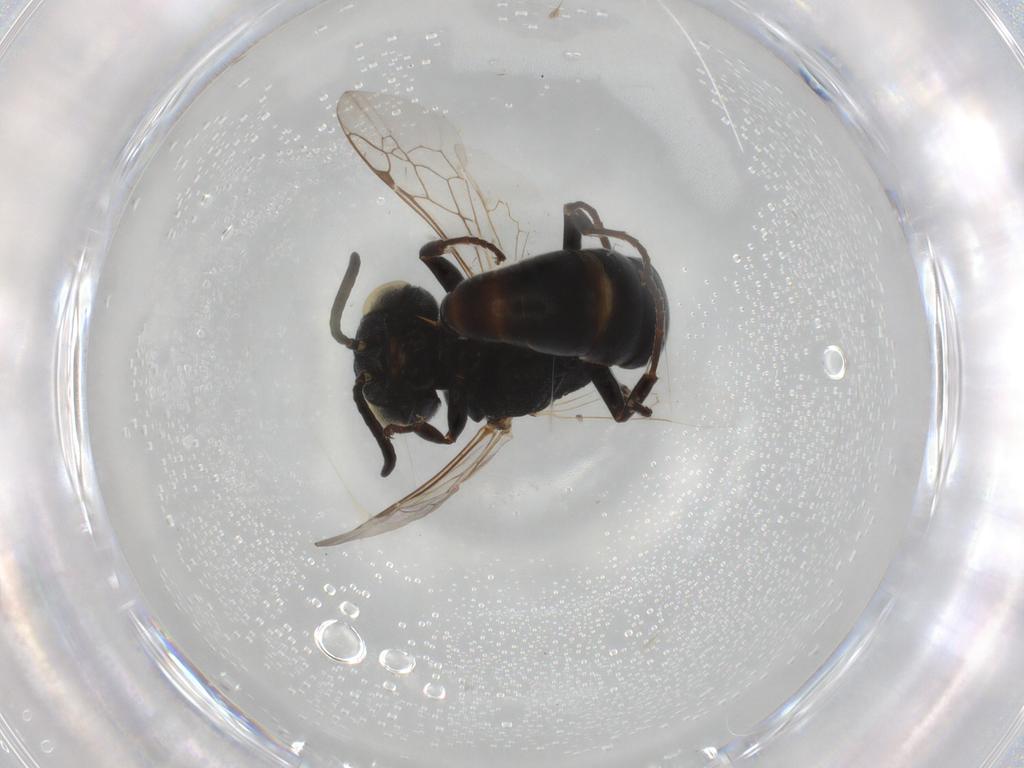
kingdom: Animalia
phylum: Arthropoda
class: Insecta
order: Hymenoptera
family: Crabronidae
